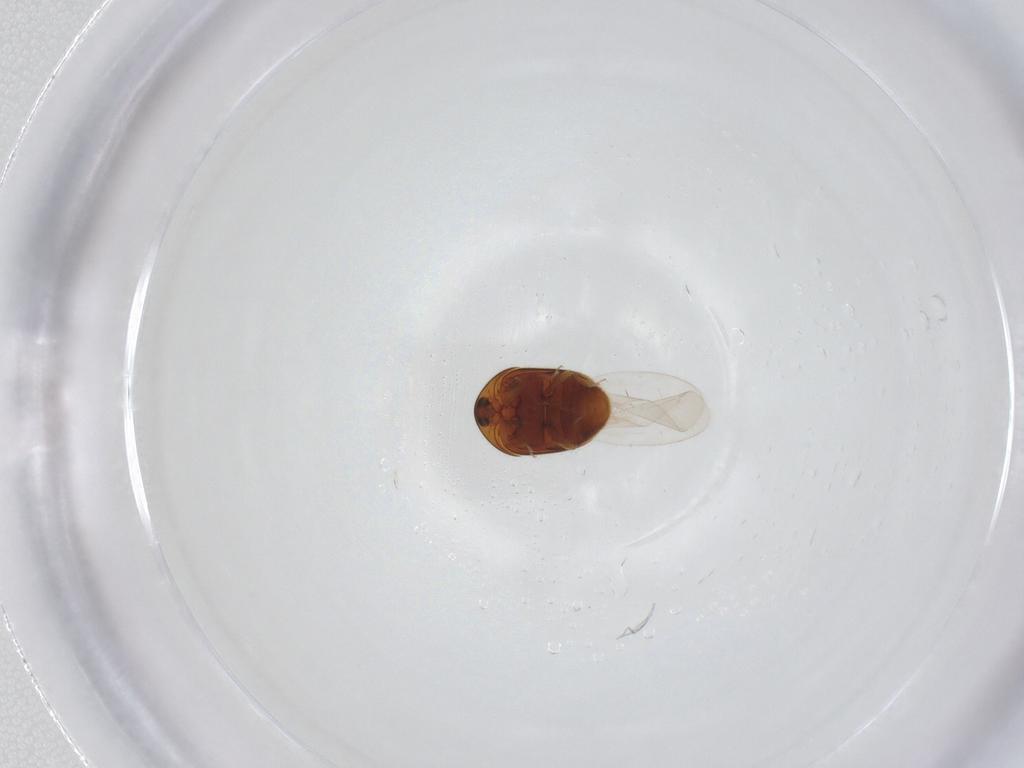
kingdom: Animalia
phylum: Arthropoda
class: Insecta
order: Coleoptera
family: Corylophidae
